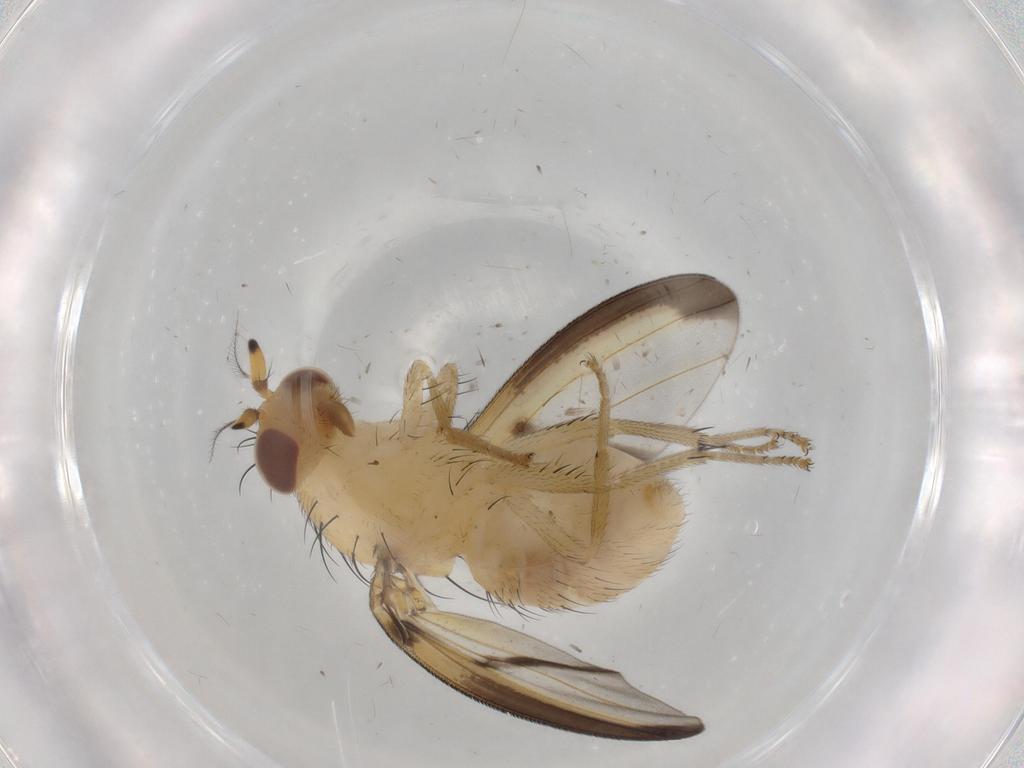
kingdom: Animalia
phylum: Arthropoda
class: Insecta
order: Diptera
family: Lauxaniidae
